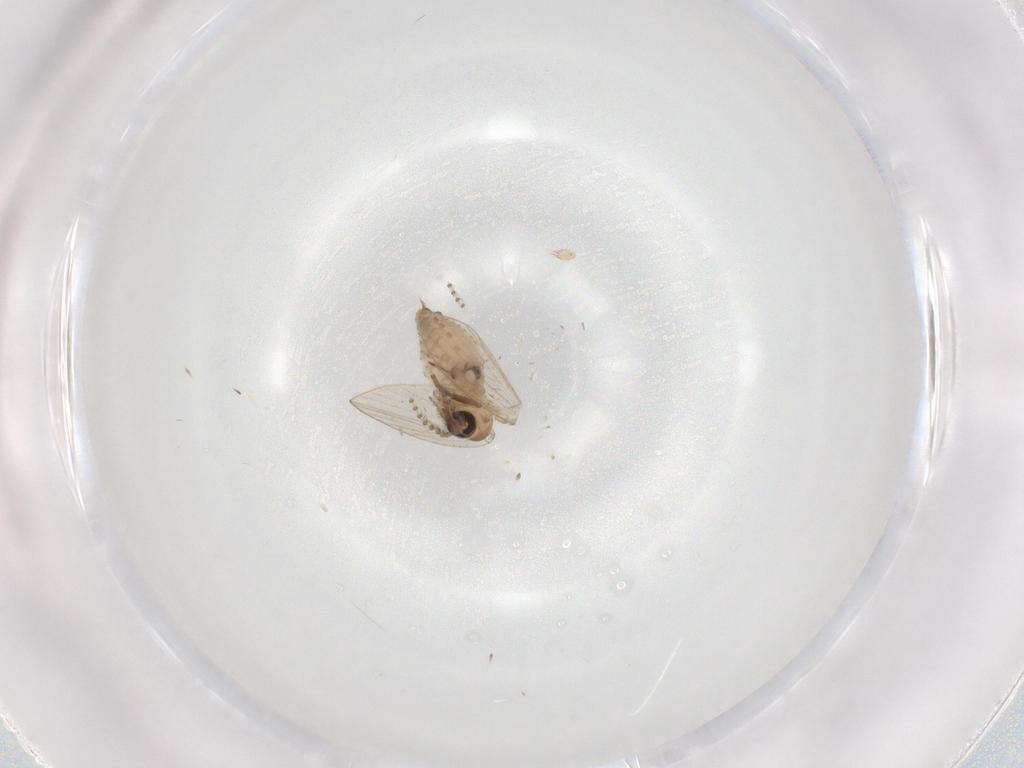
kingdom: Animalia
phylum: Arthropoda
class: Insecta
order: Diptera
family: Psychodidae
